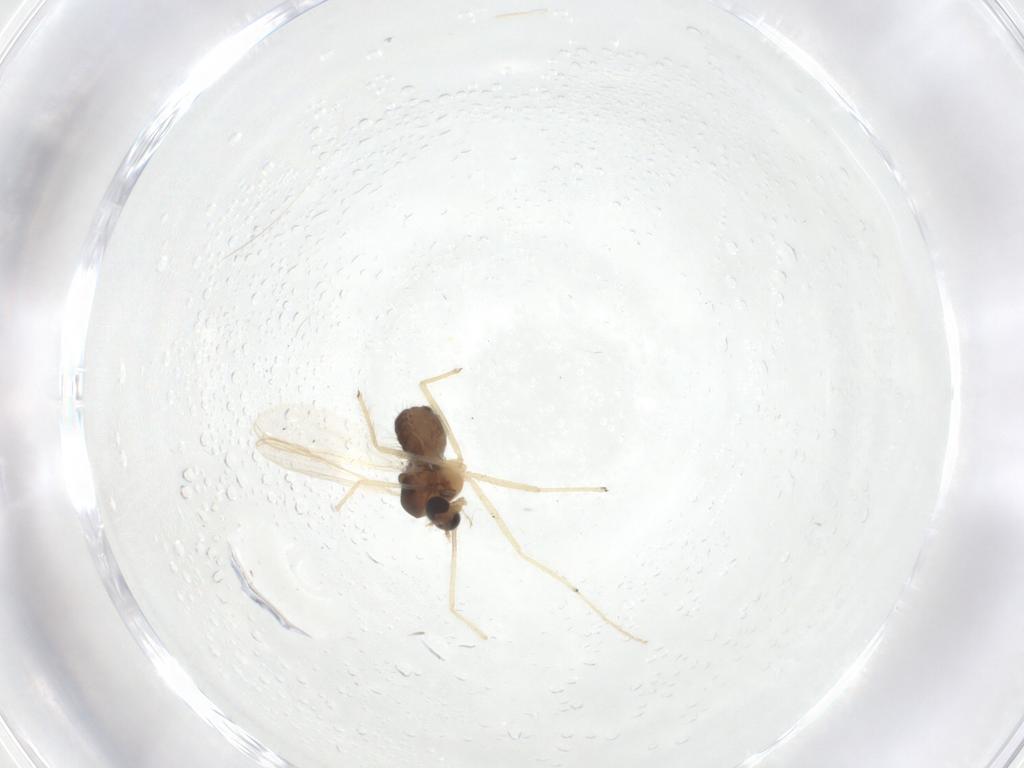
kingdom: Animalia
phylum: Arthropoda
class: Insecta
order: Diptera
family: Chironomidae
